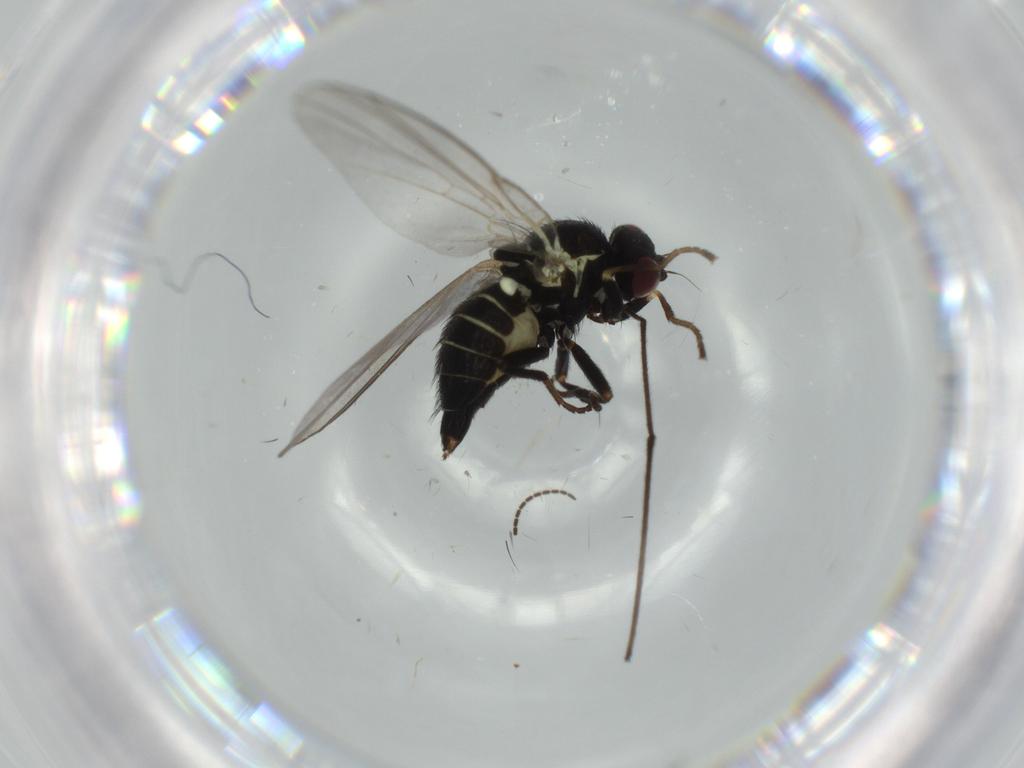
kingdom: Animalia
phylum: Arthropoda
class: Insecta
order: Diptera
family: Agromyzidae
